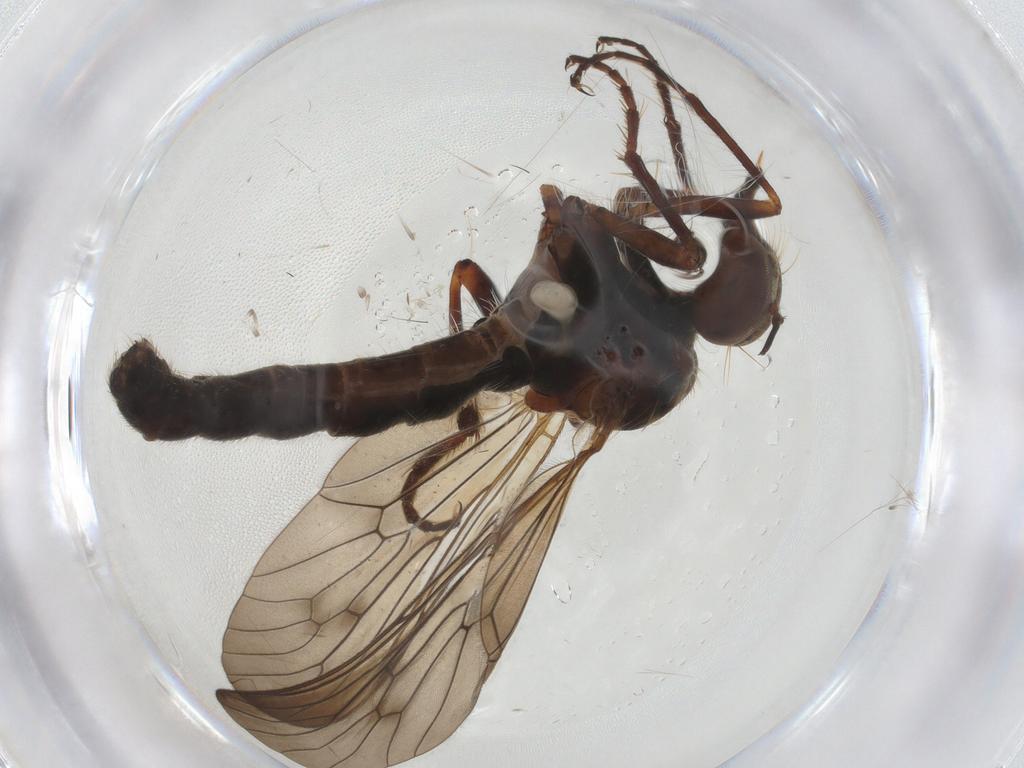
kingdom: Animalia
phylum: Arthropoda
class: Insecta
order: Diptera
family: Asilidae
